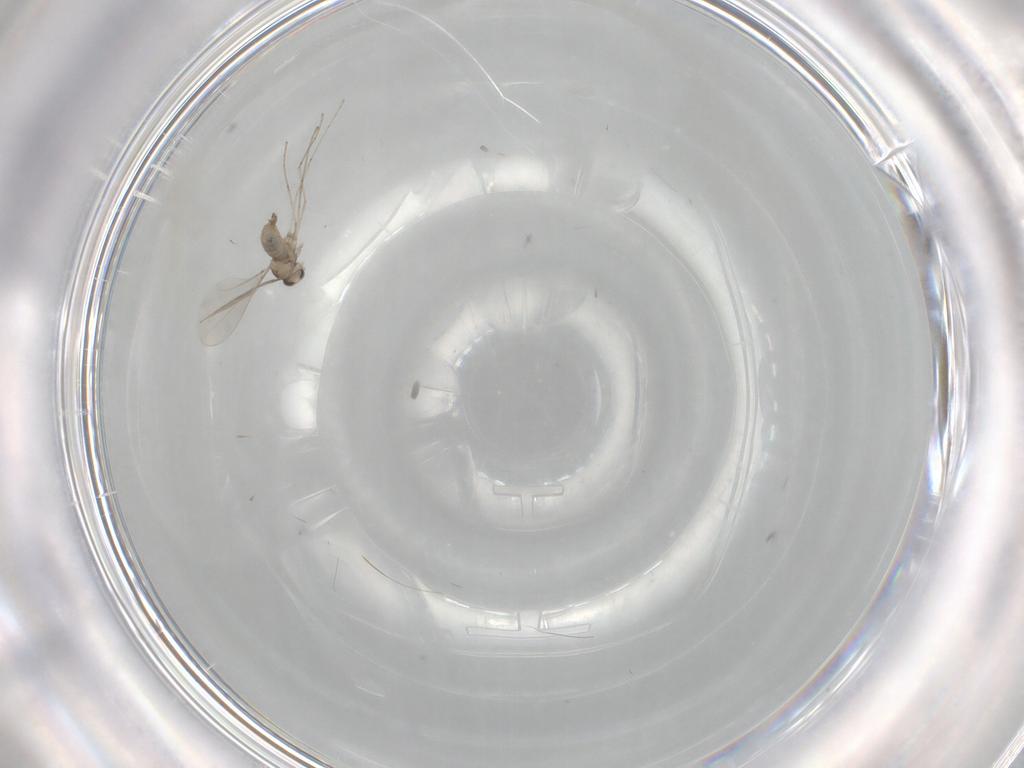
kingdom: Animalia
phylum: Arthropoda
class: Insecta
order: Diptera
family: Cecidomyiidae
